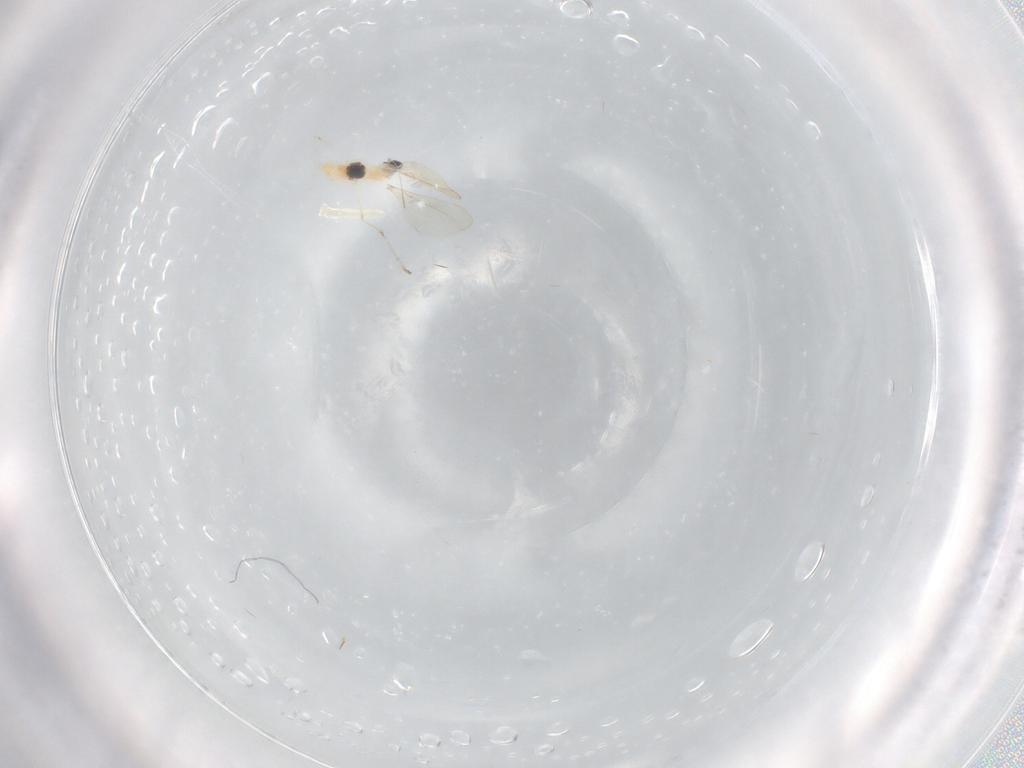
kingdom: Animalia
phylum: Arthropoda
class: Insecta
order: Diptera
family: Cecidomyiidae
